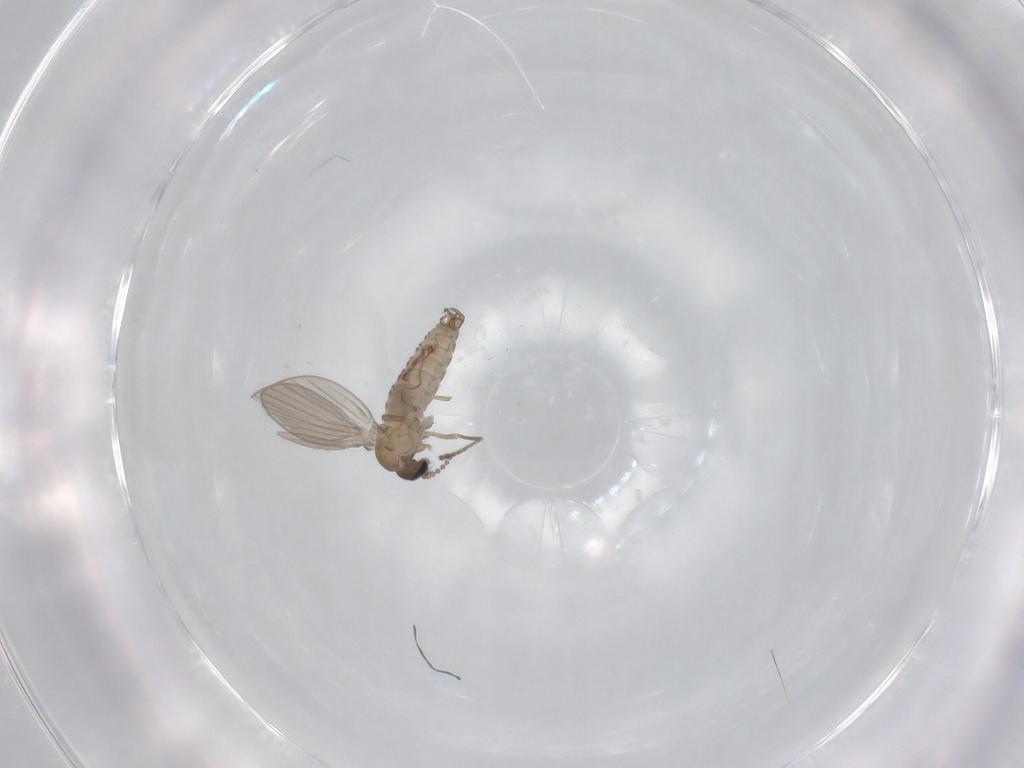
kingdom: Animalia
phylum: Arthropoda
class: Insecta
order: Diptera
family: Psychodidae
